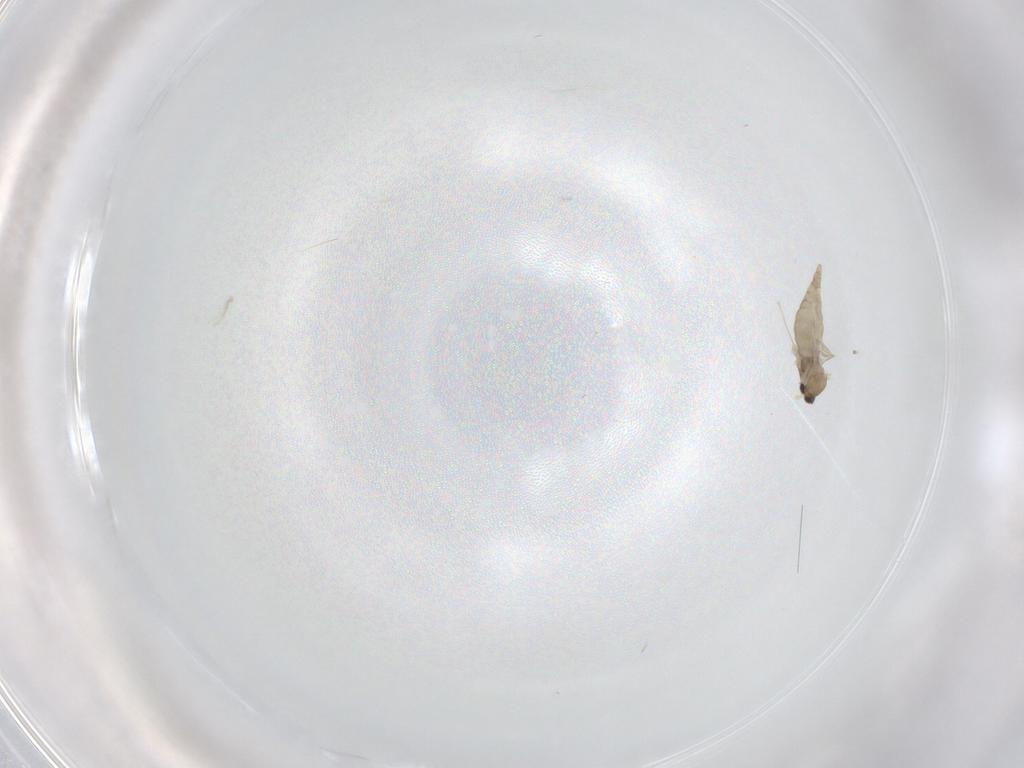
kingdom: Animalia
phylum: Arthropoda
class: Insecta
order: Diptera
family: Cecidomyiidae
